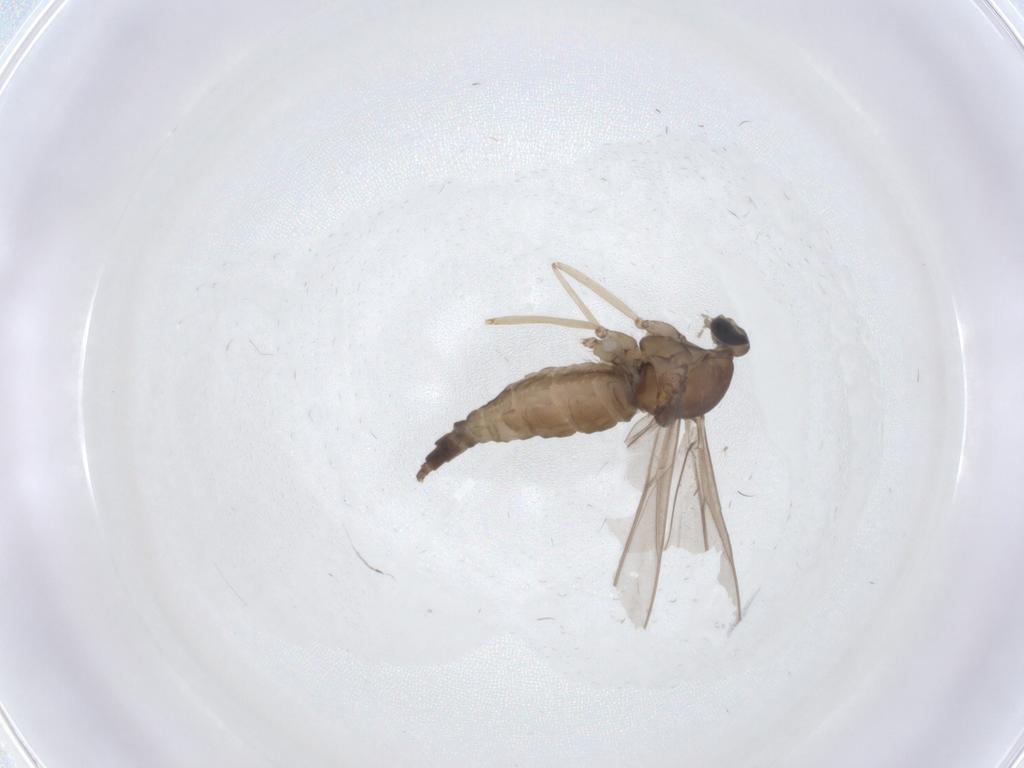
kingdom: Animalia
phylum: Arthropoda
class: Insecta
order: Diptera
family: Cecidomyiidae
